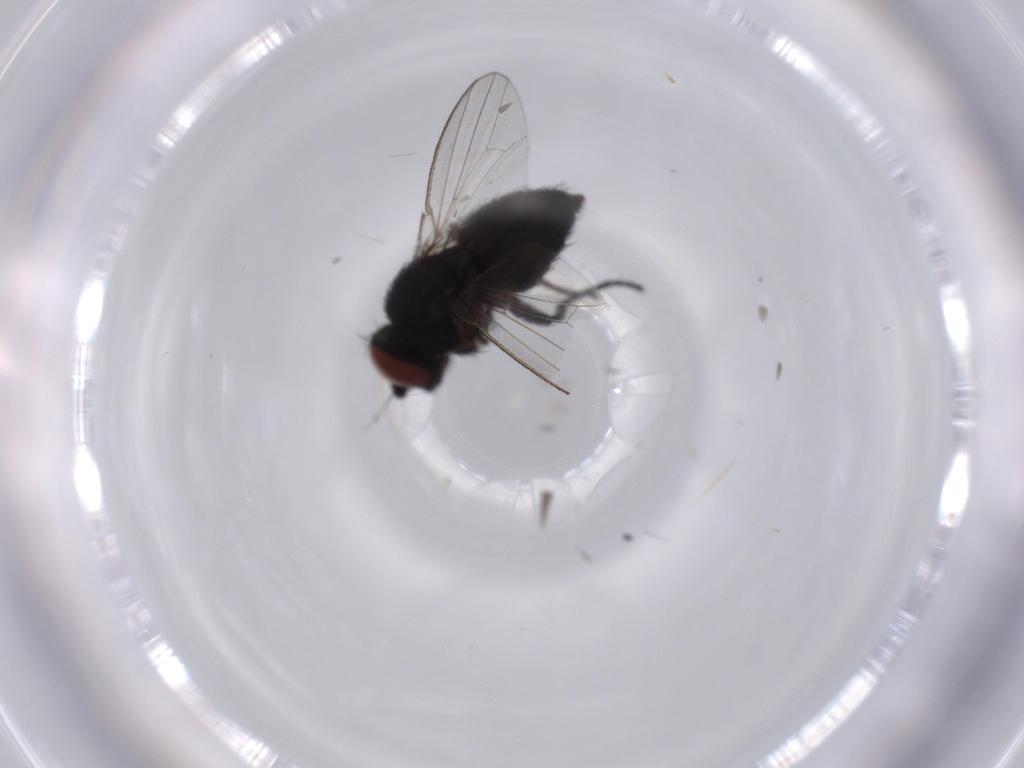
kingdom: Animalia
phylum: Arthropoda
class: Insecta
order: Diptera
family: Milichiidae
